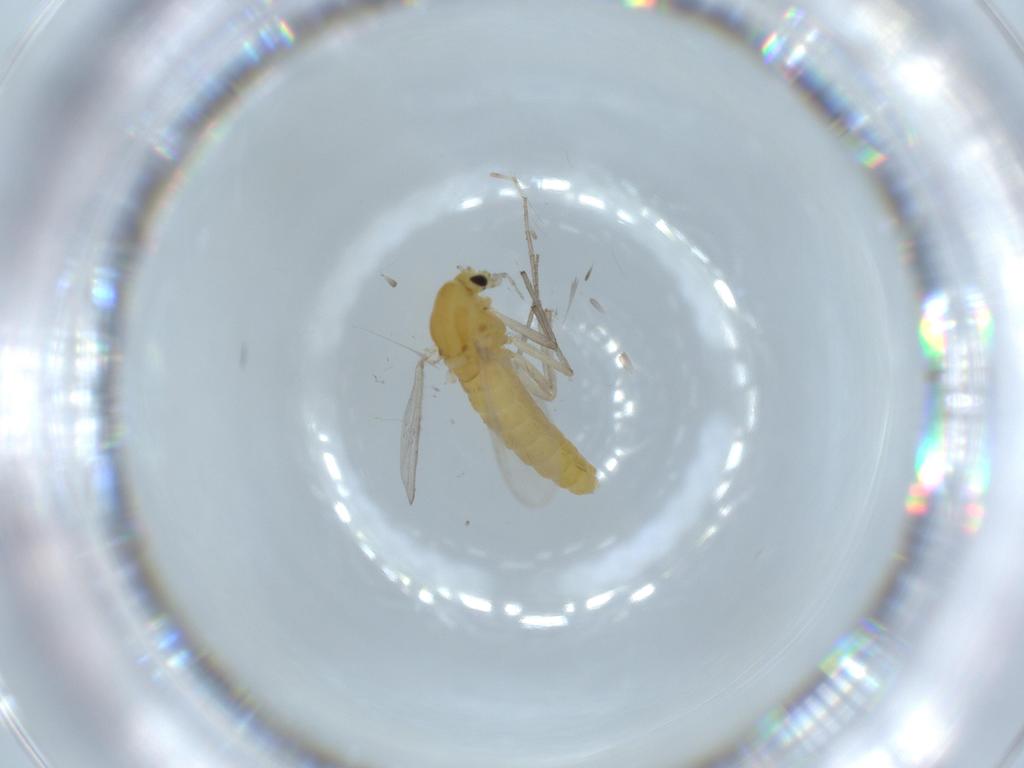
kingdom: Animalia
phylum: Arthropoda
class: Insecta
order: Diptera
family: Chironomidae
